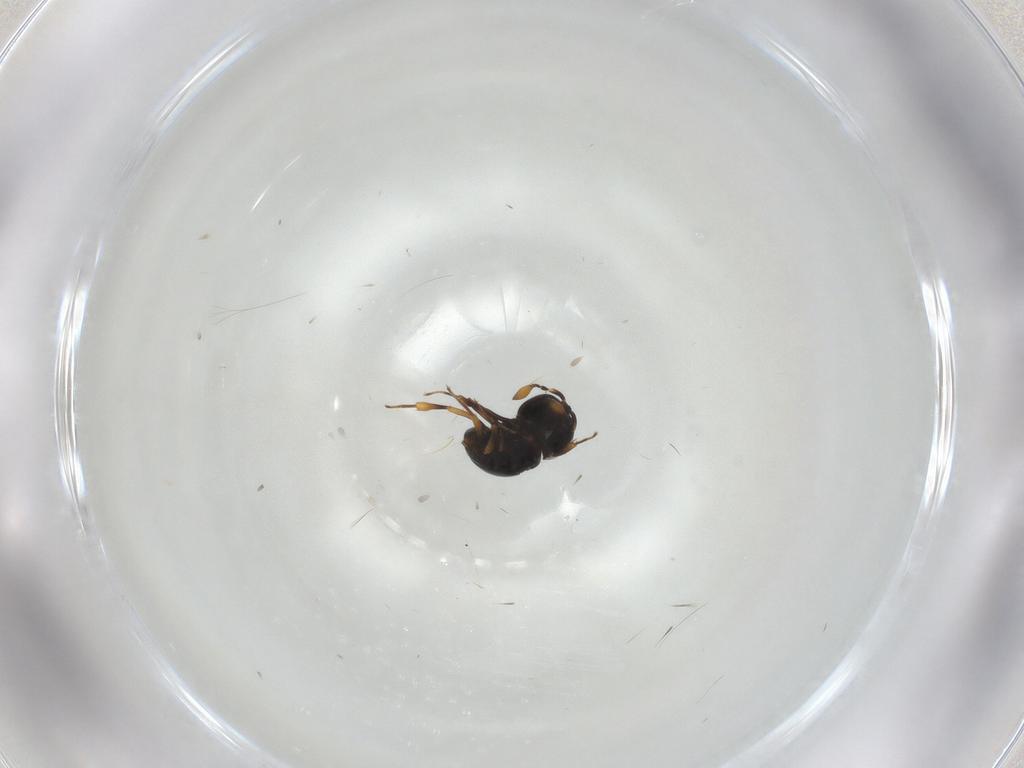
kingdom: Animalia
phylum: Arthropoda
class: Insecta
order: Hymenoptera
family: Scelionidae
